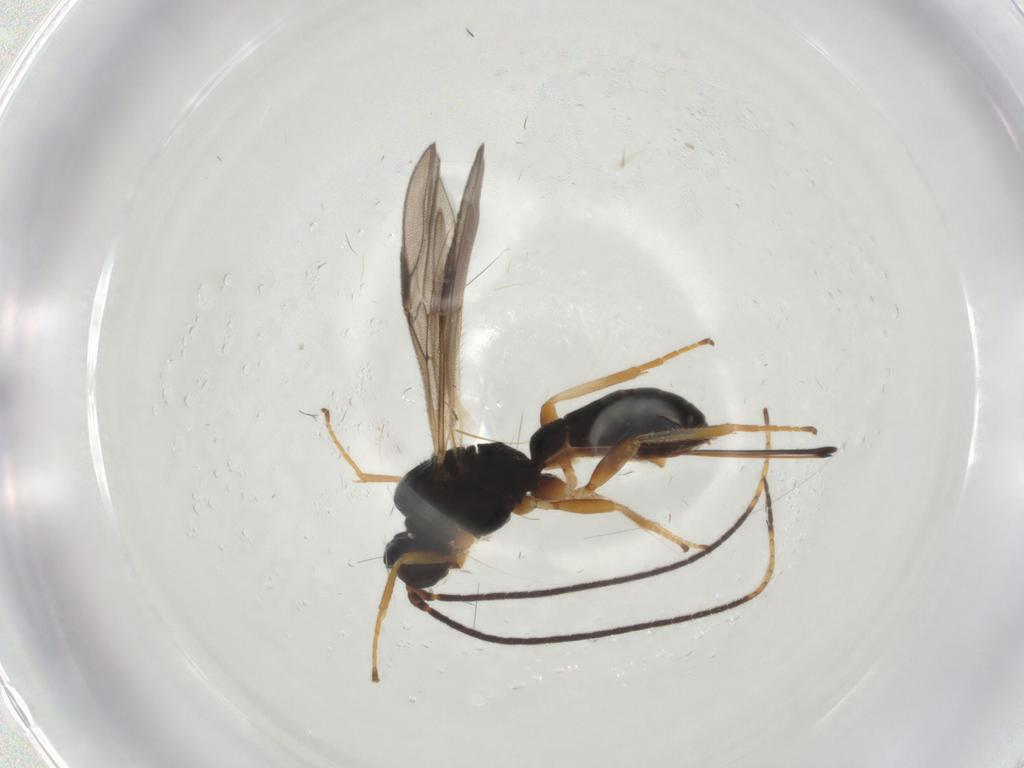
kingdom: Animalia
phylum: Arthropoda
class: Insecta
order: Hymenoptera
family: Braconidae
